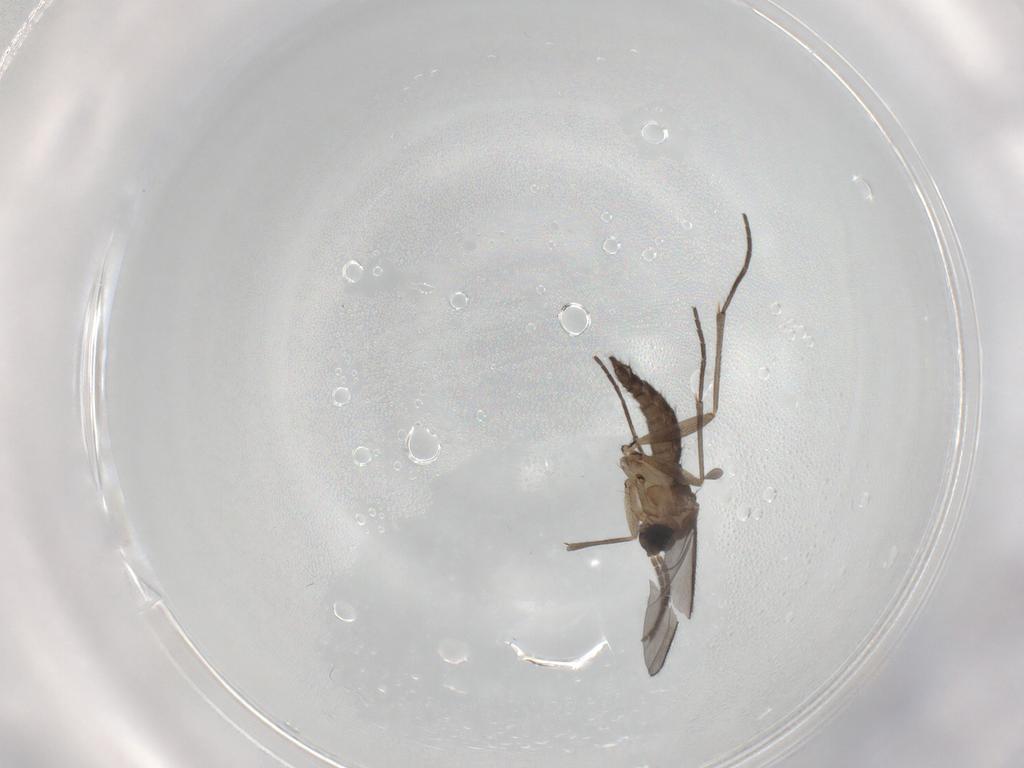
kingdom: Animalia
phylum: Arthropoda
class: Insecta
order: Diptera
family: Sciaridae
